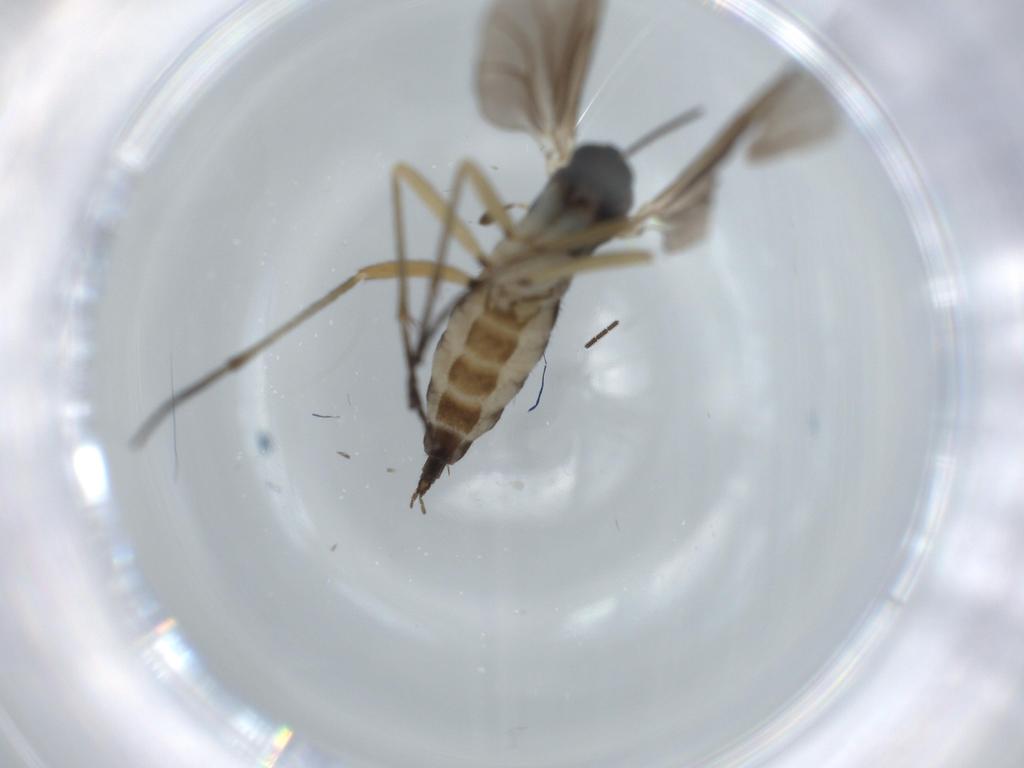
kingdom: Animalia
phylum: Arthropoda
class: Insecta
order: Diptera
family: Sciaridae
